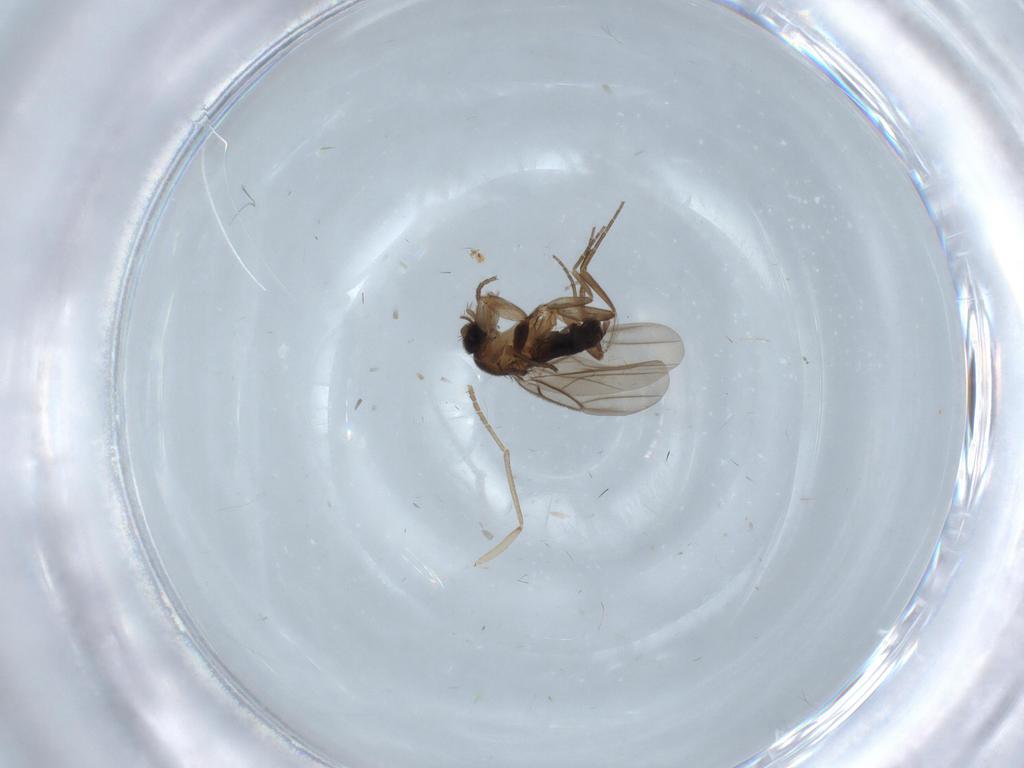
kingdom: Animalia
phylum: Arthropoda
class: Insecta
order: Diptera
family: Phoridae
